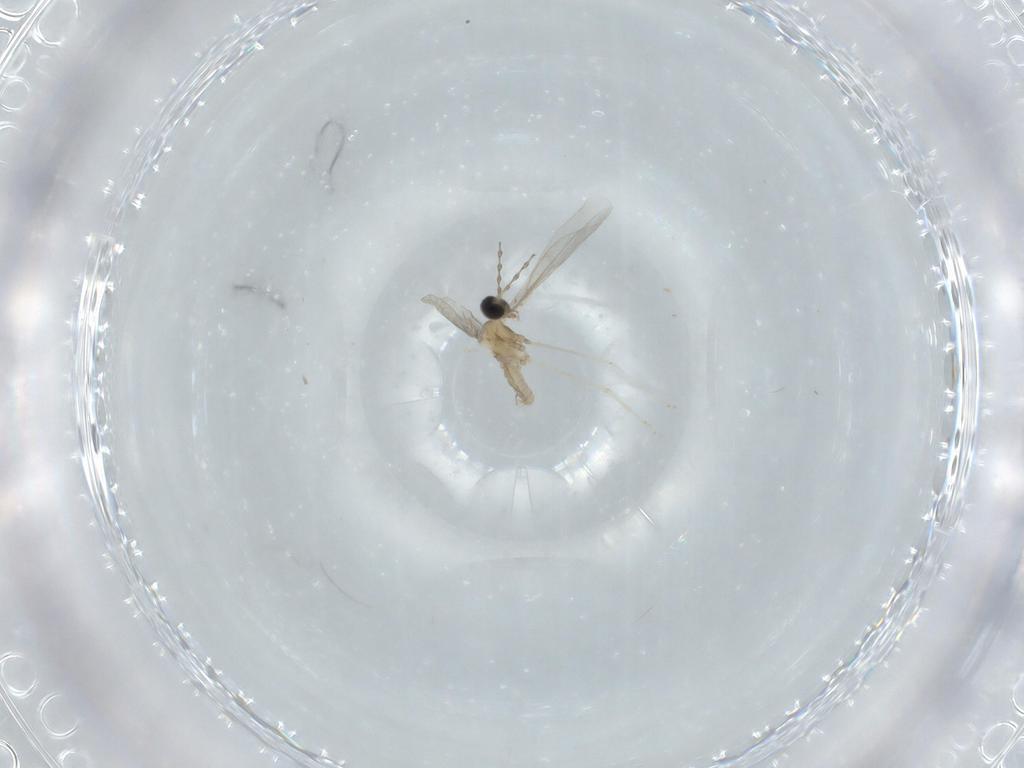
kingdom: Animalia
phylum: Arthropoda
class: Insecta
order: Diptera
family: Cecidomyiidae
